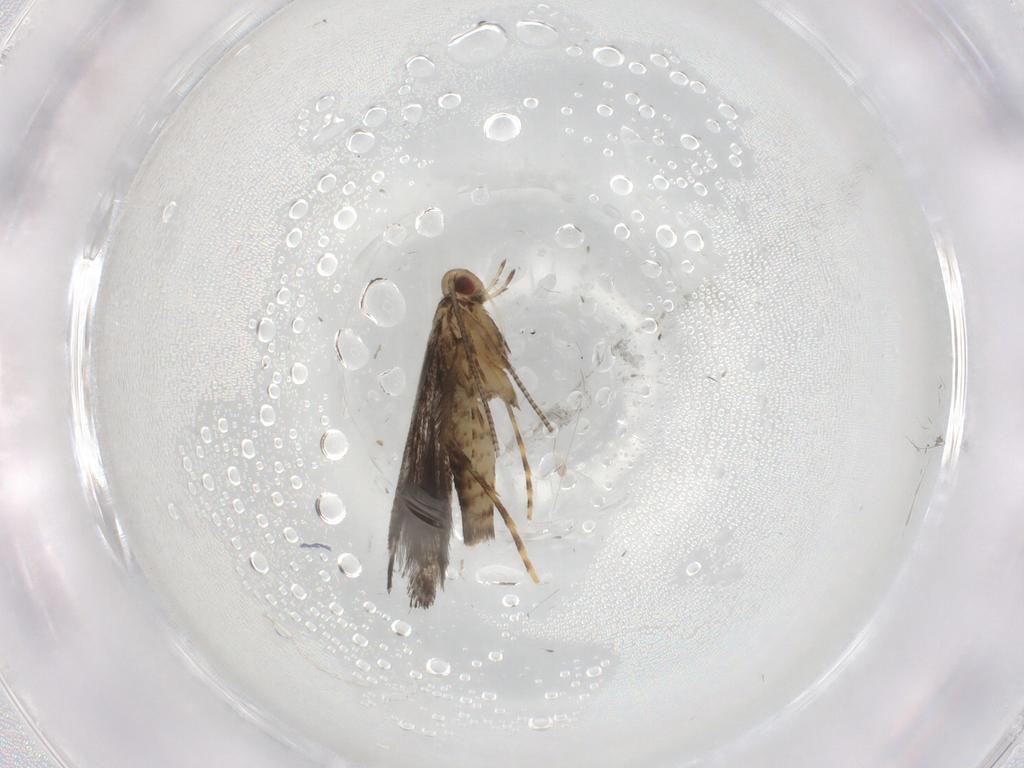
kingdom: Animalia
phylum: Arthropoda
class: Insecta
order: Lepidoptera
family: Gracillariidae
